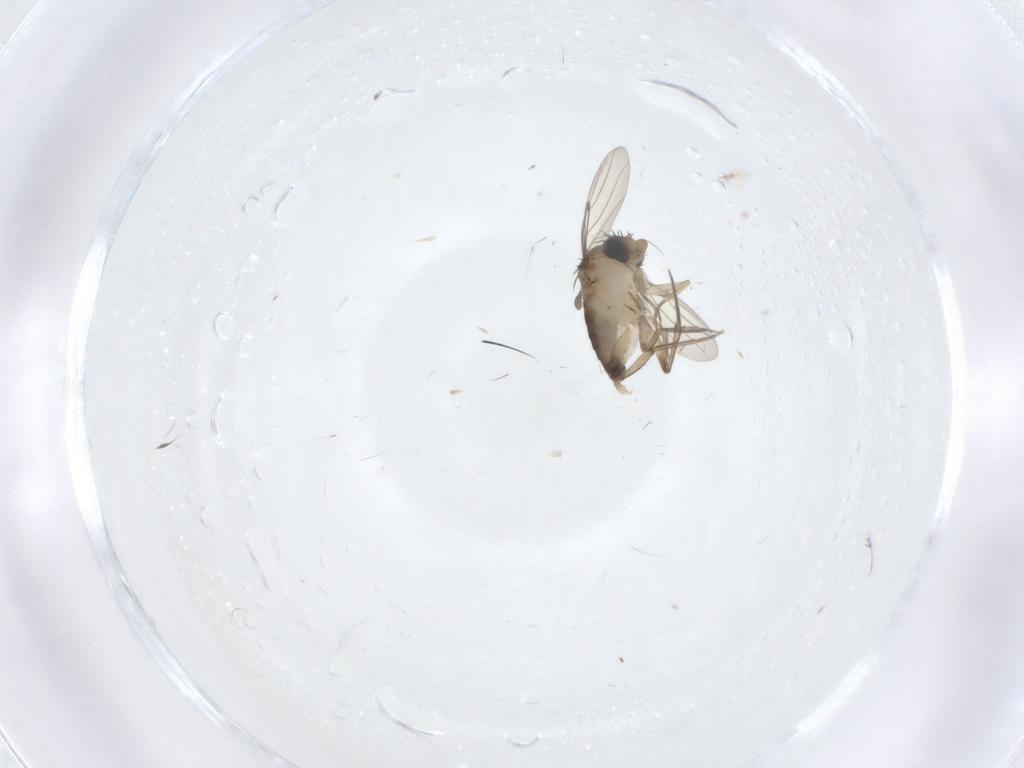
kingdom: Animalia
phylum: Arthropoda
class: Insecta
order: Diptera
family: Phoridae
